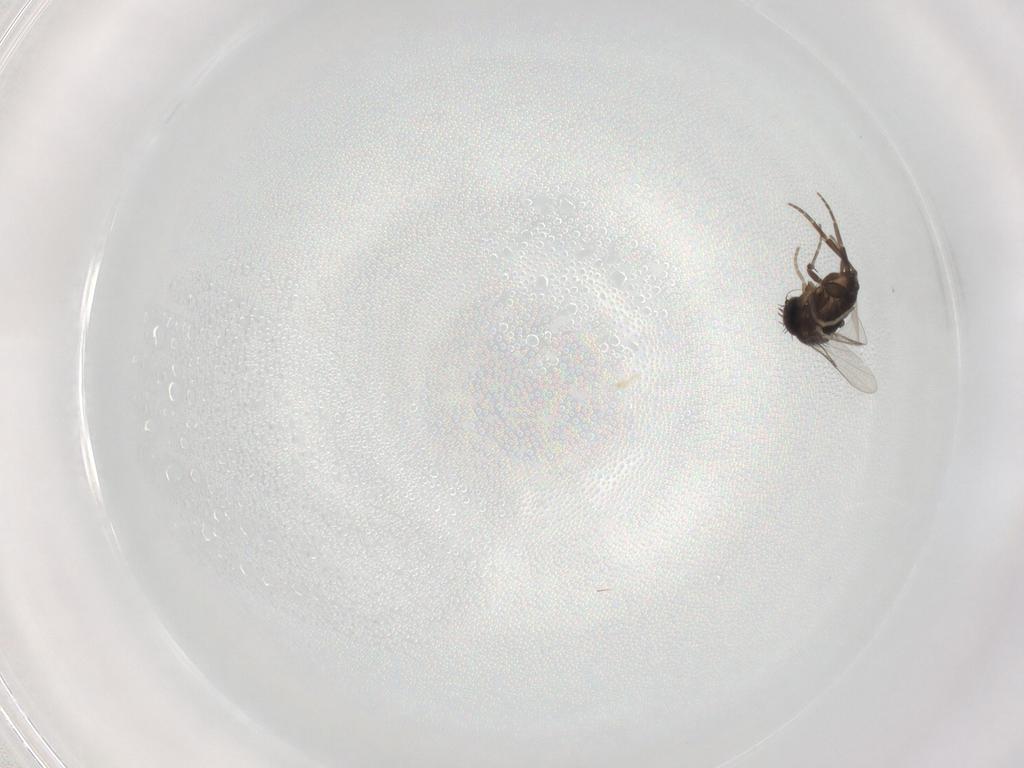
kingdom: Animalia
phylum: Arthropoda
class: Insecta
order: Diptera
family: Phoridae
